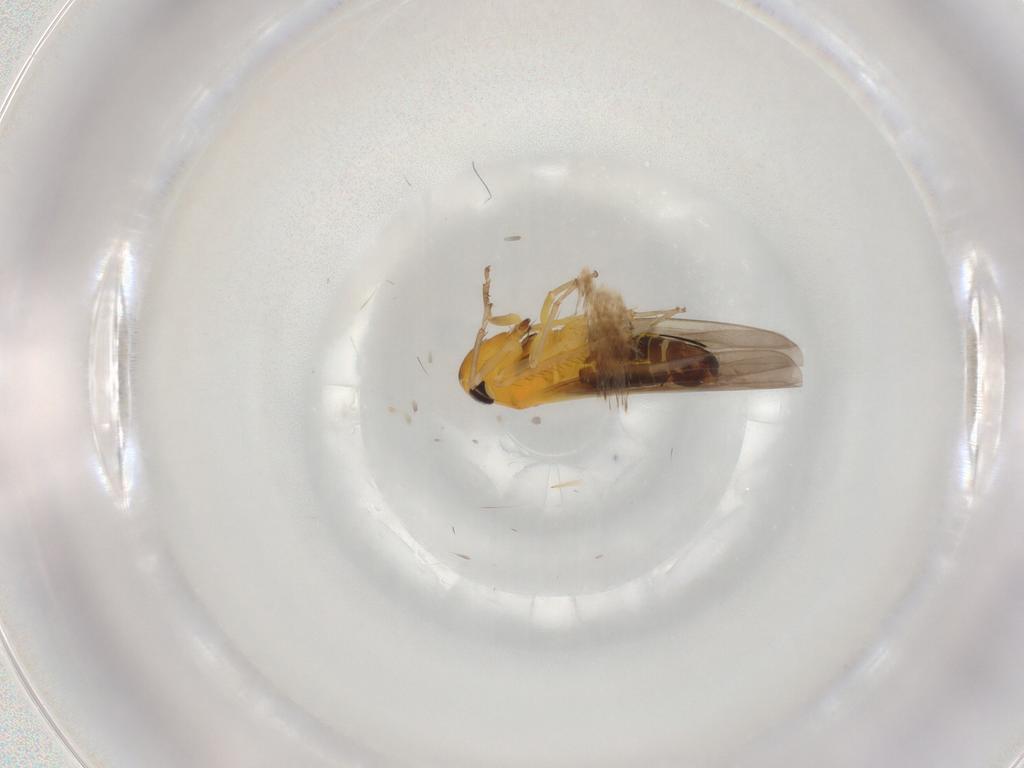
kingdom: Animalia
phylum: Arthropoda
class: Insecta
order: Hemiptera
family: Cicadellidae
